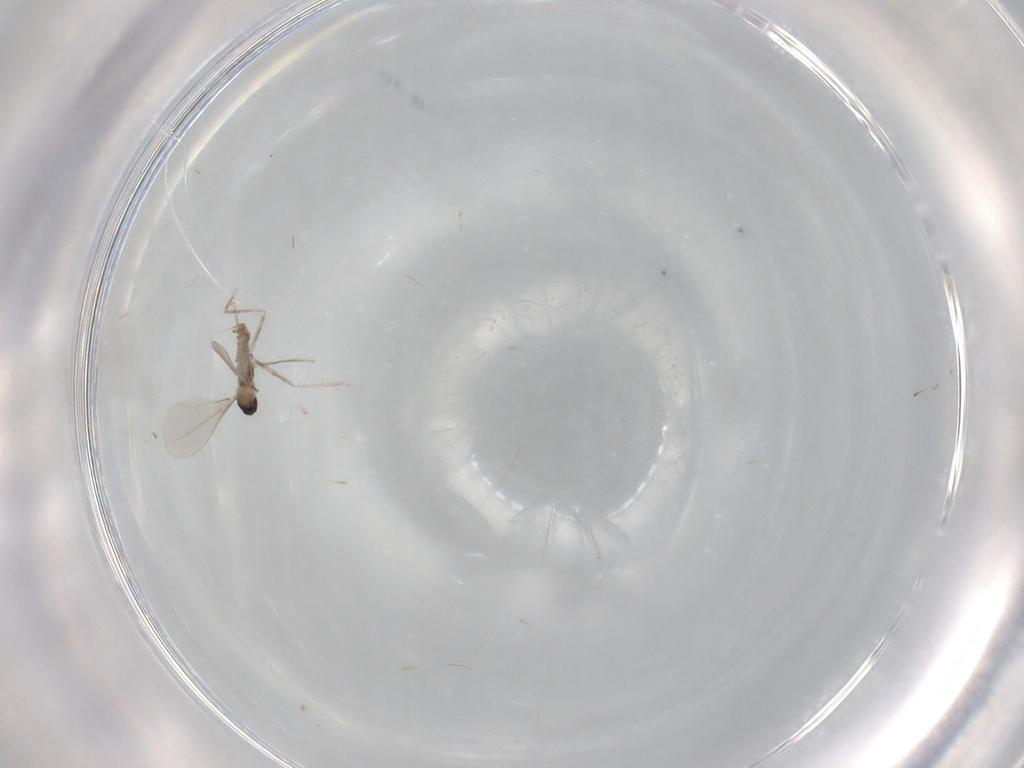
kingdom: Animalia
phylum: Arthropoda
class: Insecta
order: Diptera
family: Cecidomyiidae
